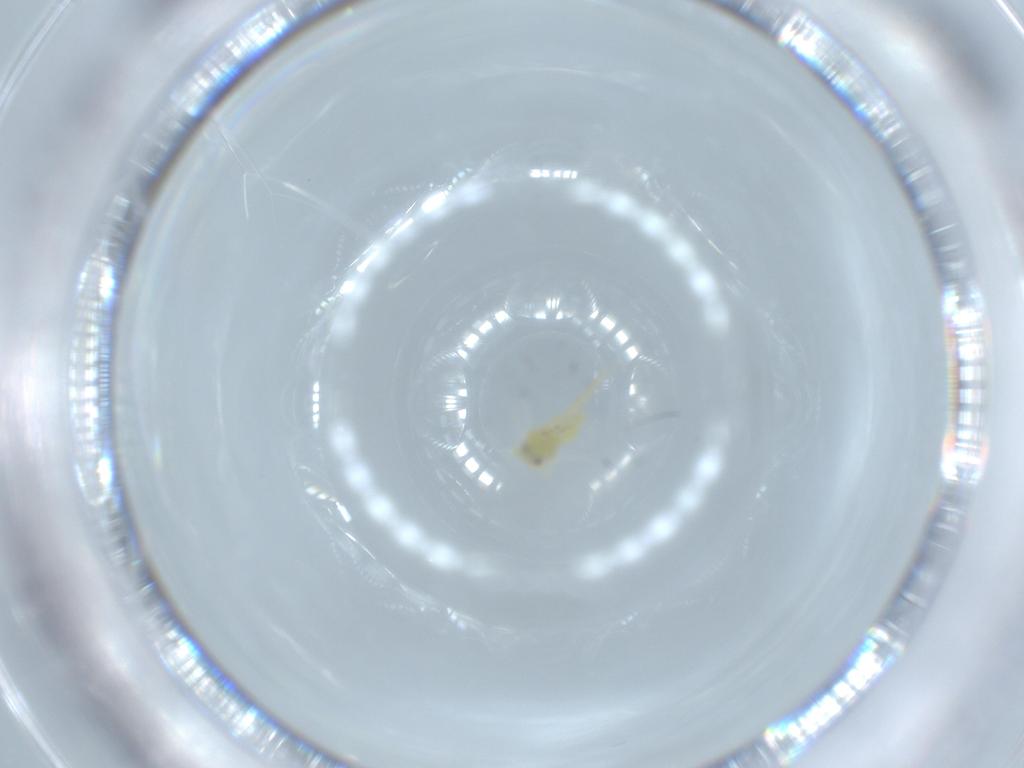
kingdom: Animalia
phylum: Arthropoda
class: Insecta
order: Hemiptera
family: Aleyrodidae
